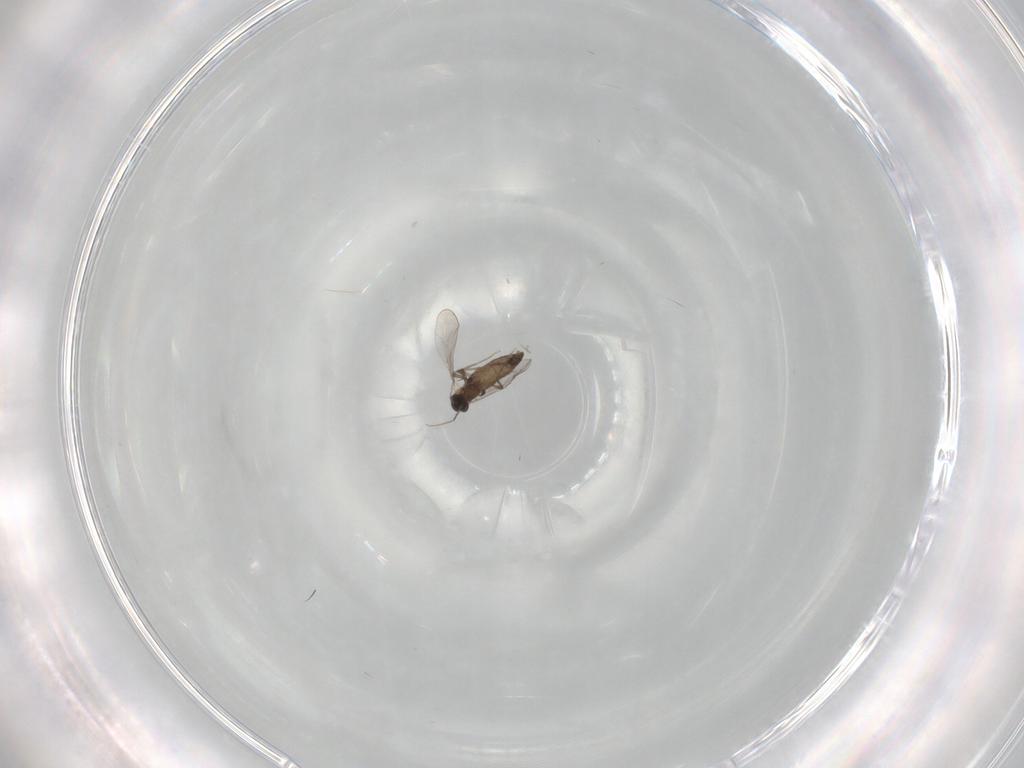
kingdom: Animalia
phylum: Arthropoda
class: Insecta
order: Diptera
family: Chironomidae
